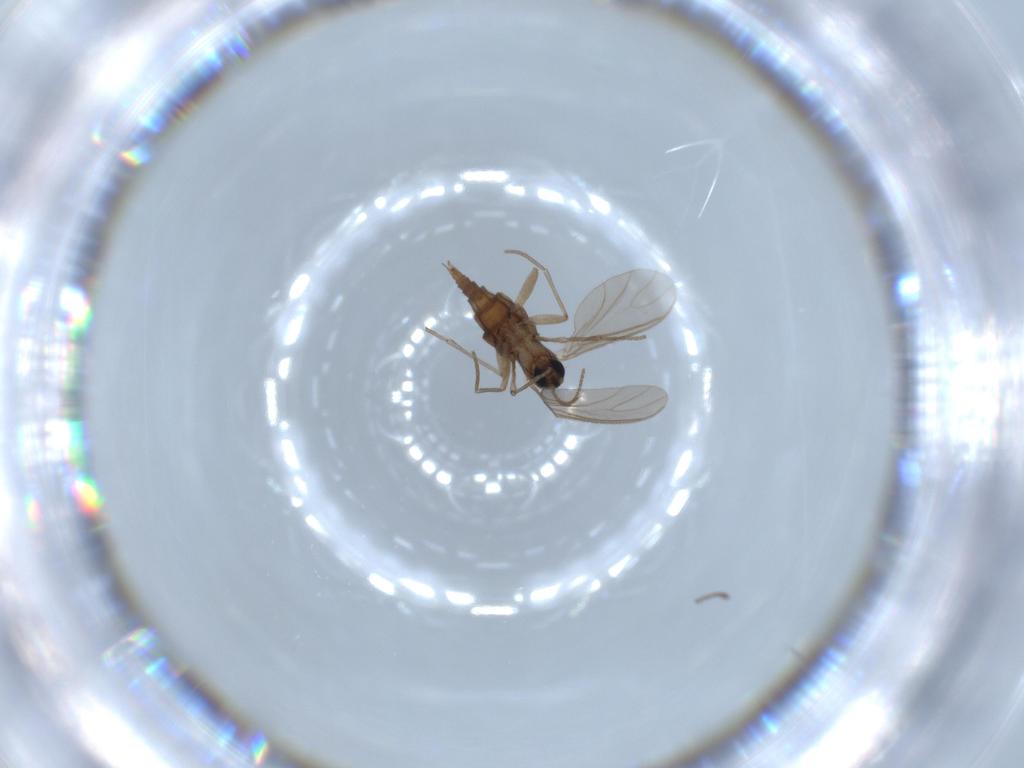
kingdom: Animalia
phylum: Arthropoda
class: Insecta
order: Diptera
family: Sciaridae
